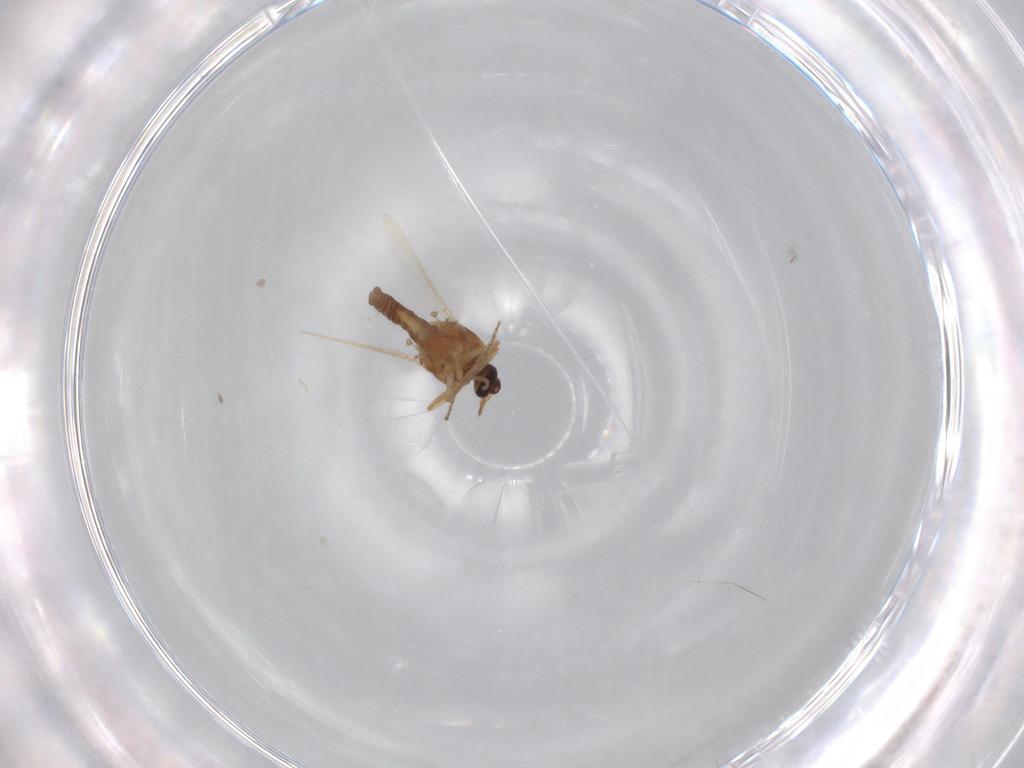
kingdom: Animalia
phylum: Arthropoda
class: Insecta
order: Diptera
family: Ceratopogonidae
